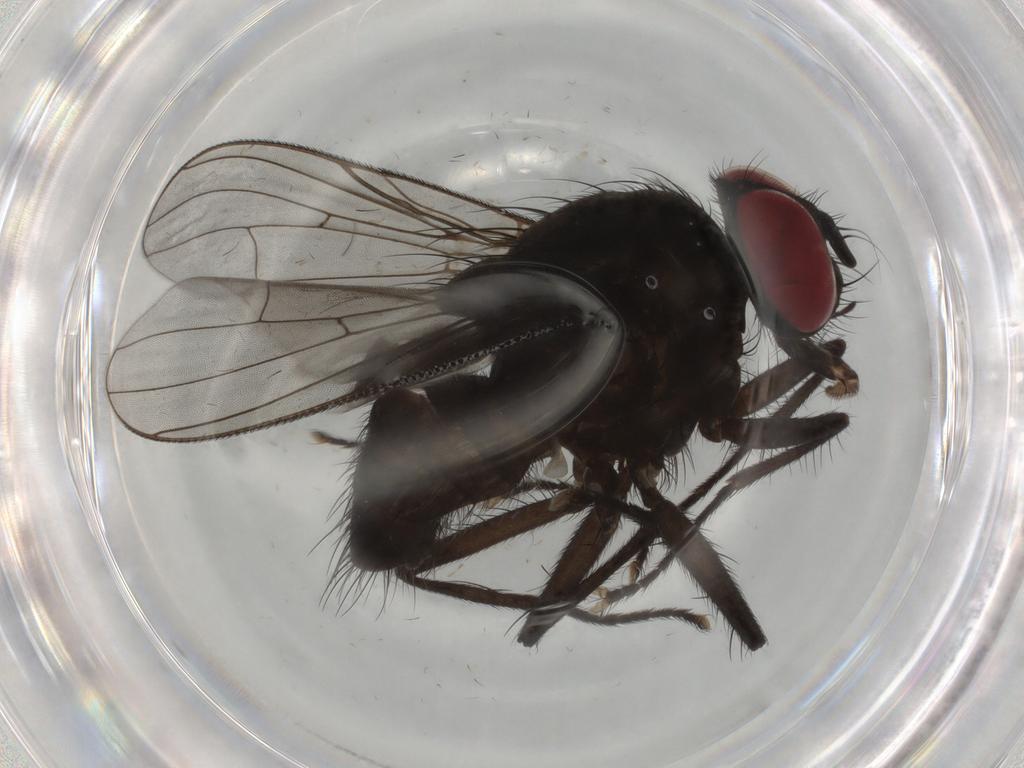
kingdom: Animalia
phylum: Arthropoda
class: Insecta
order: Diptera
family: Muscidae
